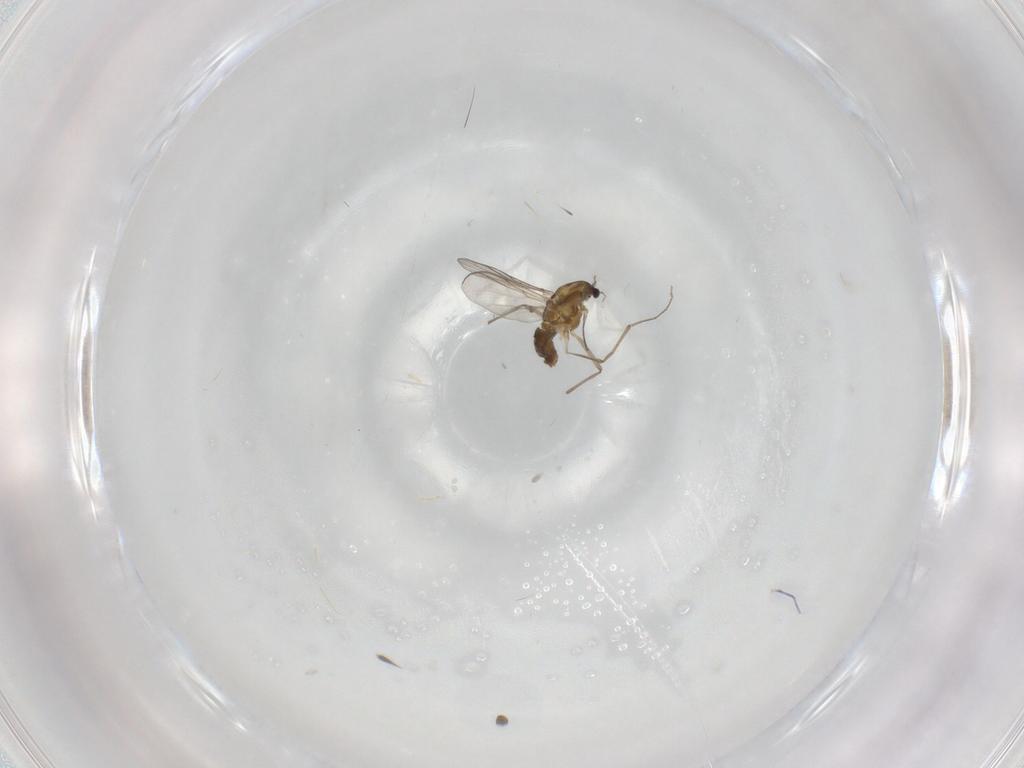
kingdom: Animalia
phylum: Arthropoda
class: Insecta
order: Diptera
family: Chironomidae
